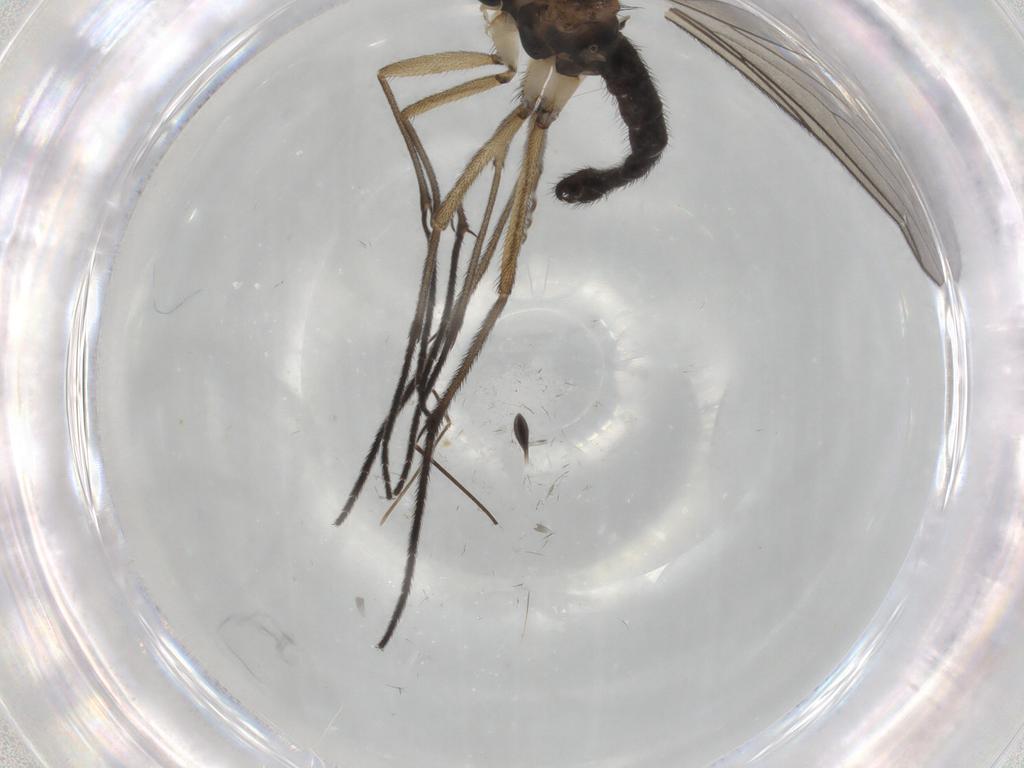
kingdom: Animalia
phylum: Arthropoda
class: Insecta
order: Diptera
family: Sciaridae
